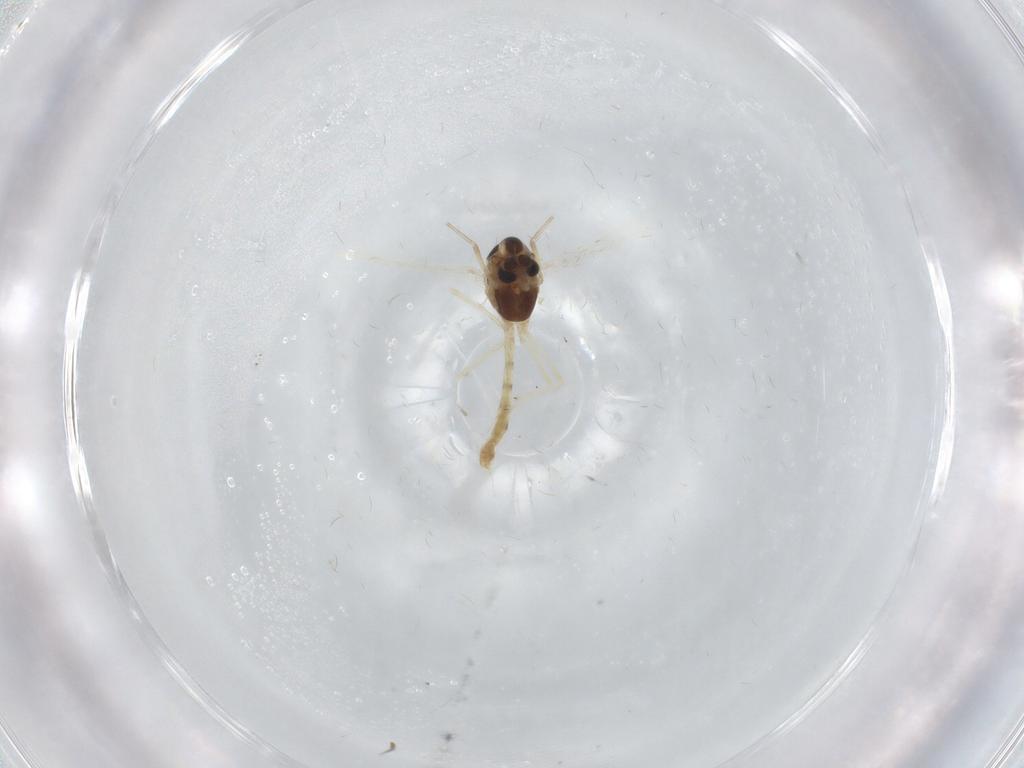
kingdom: Animalia
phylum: Arthropoda
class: Insecta
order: Diptera
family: Chironomidae
